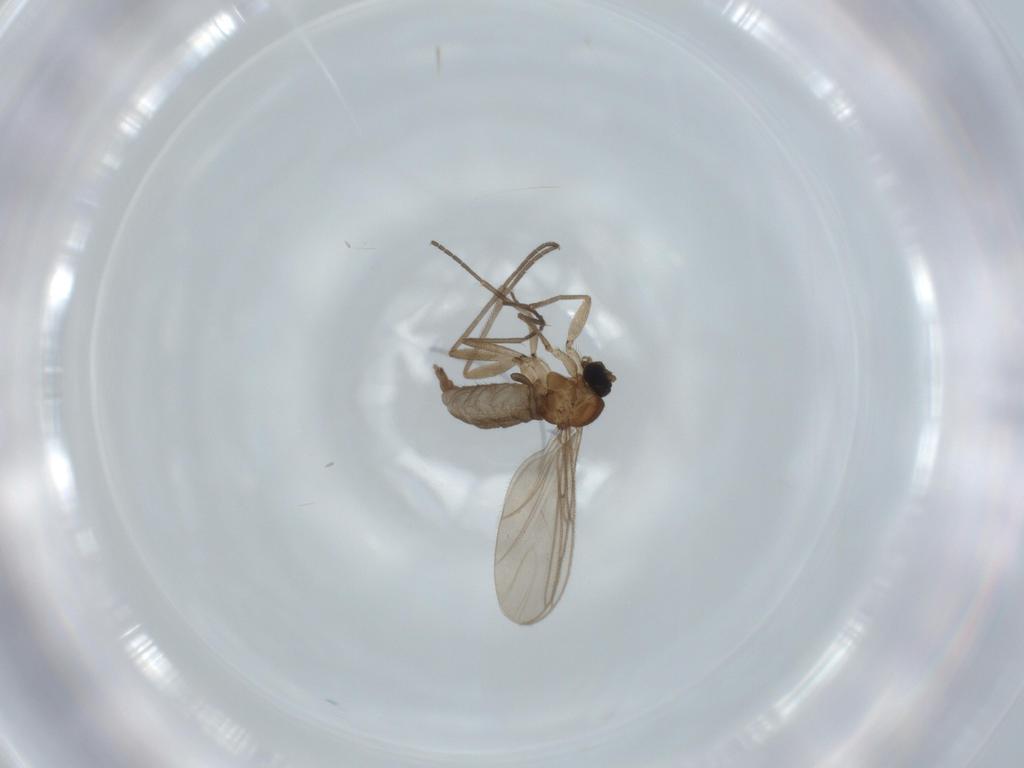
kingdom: Animalia
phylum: Arthropoda
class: Insecta
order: Diptera
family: Sciaridae
